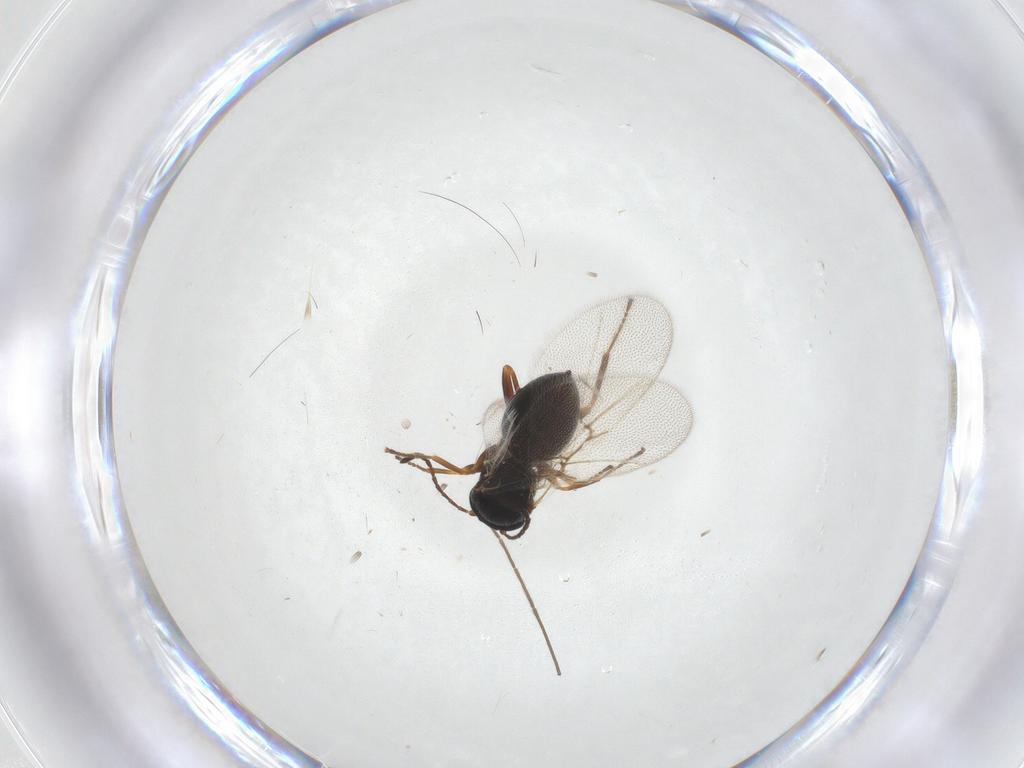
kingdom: Animalia
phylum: Arthropoda
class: Insecta
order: Hymenoptera
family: Cynipidae
